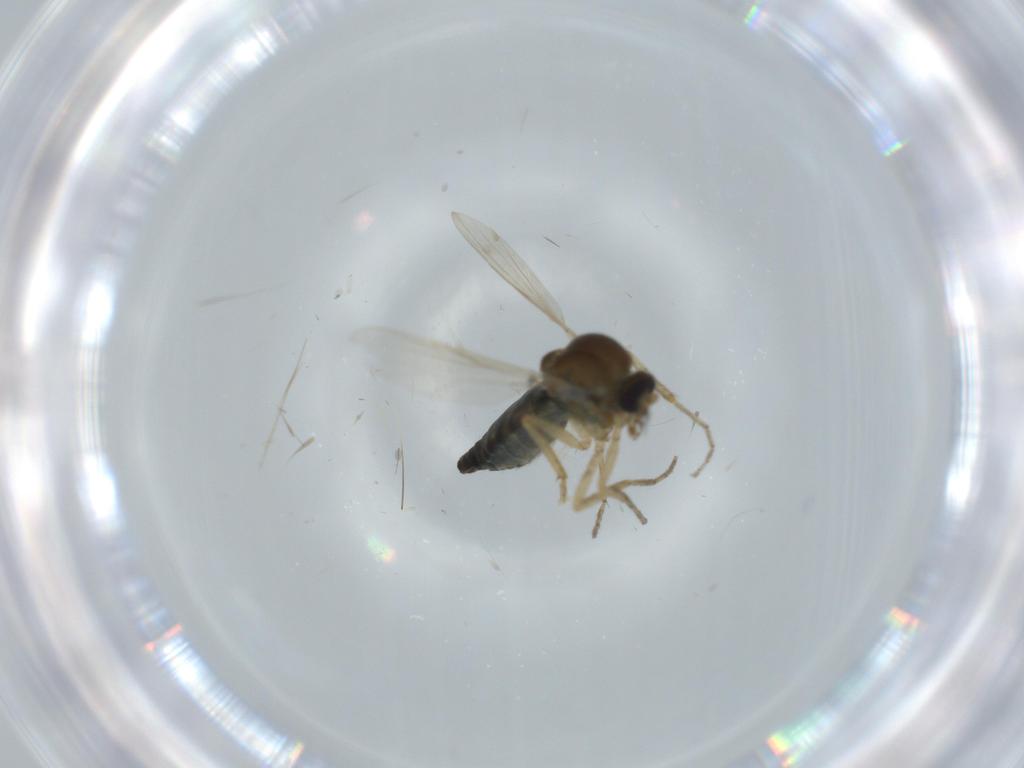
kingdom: Animalia
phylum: Arthropoda
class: Insecta
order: Diptera
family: Ceratopogonidae
